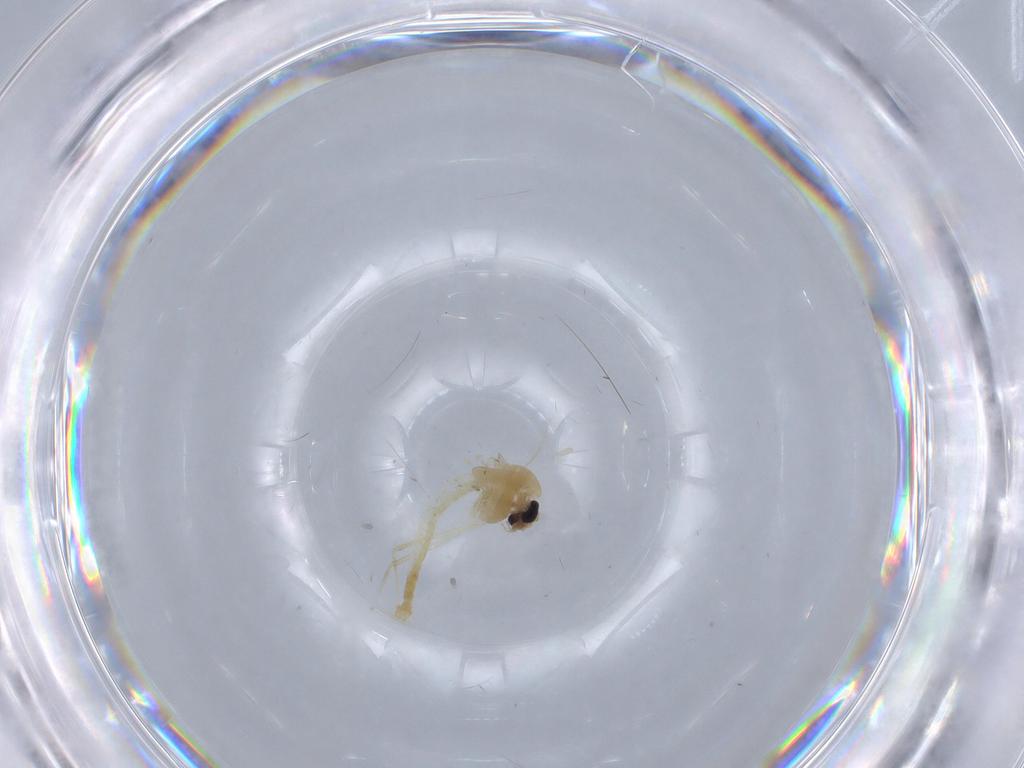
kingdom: Animalia
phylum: Arthropoda
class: Insecta
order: Diptera
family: Chironomidae
